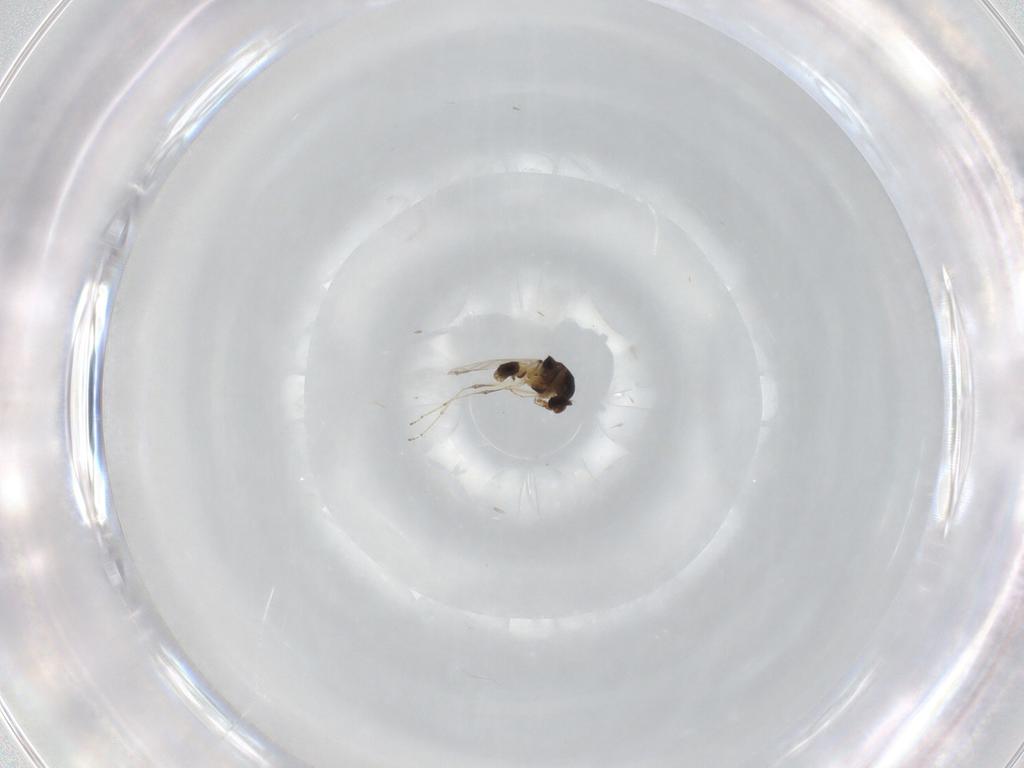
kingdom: Animalia
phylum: Arthropoda
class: Insecta
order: Diptera
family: Ceratopogonidae
